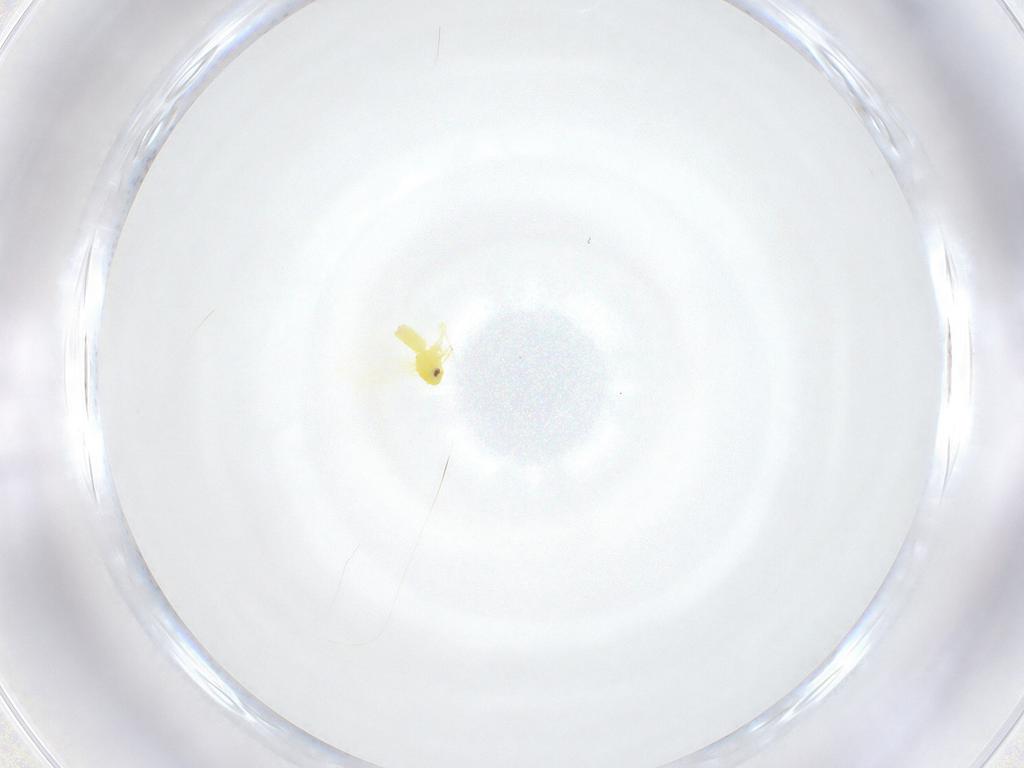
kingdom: Animalia
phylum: Arthropoda
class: Insecta
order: Hemiptera
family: Aleyrodidae
